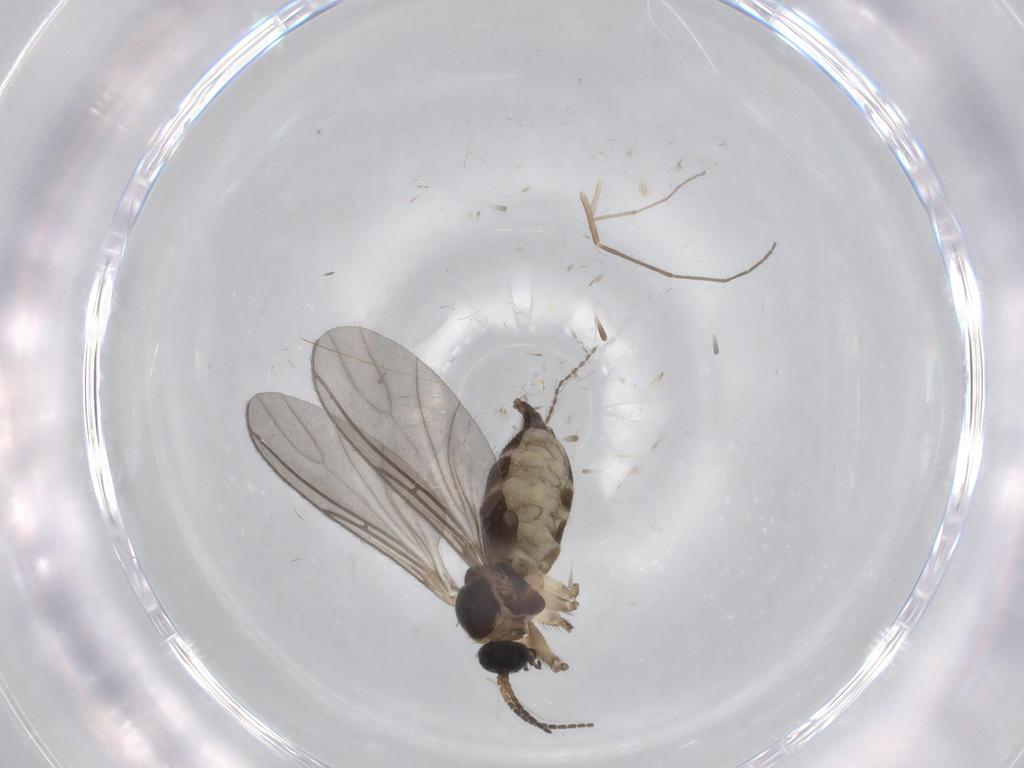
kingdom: Animalia
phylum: Arthropoda
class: Insecta
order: Diptera
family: Sciaridae
